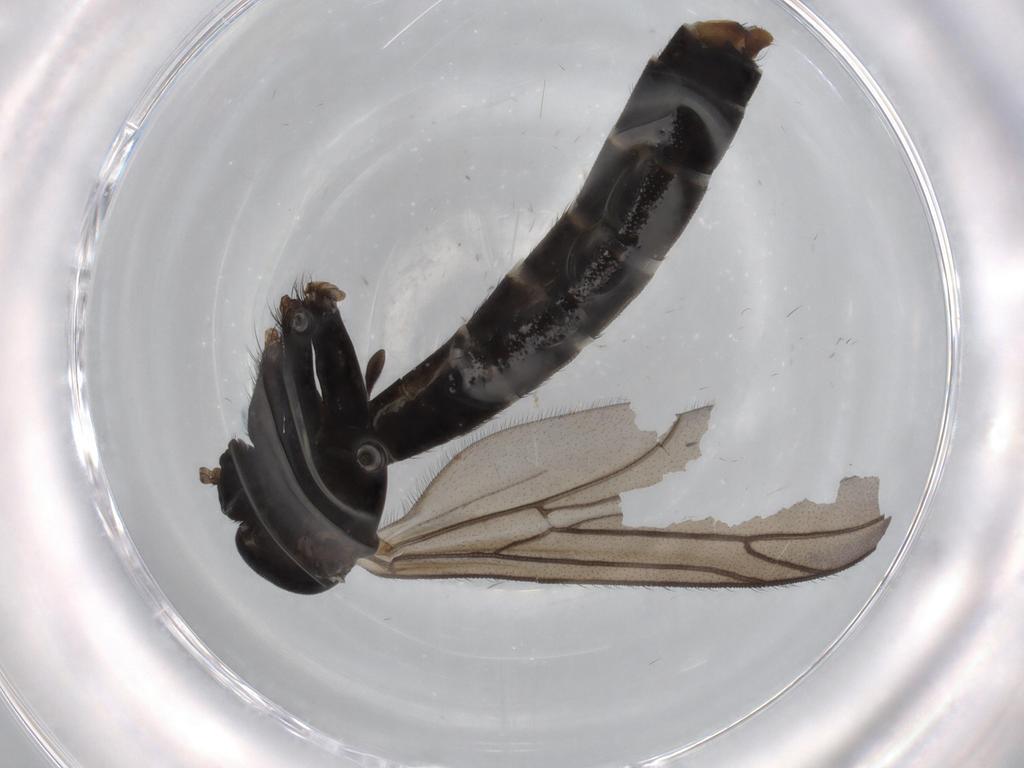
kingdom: Animalia
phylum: Arthropoda
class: Insecta
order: Diptera
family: Ditomyiidae
